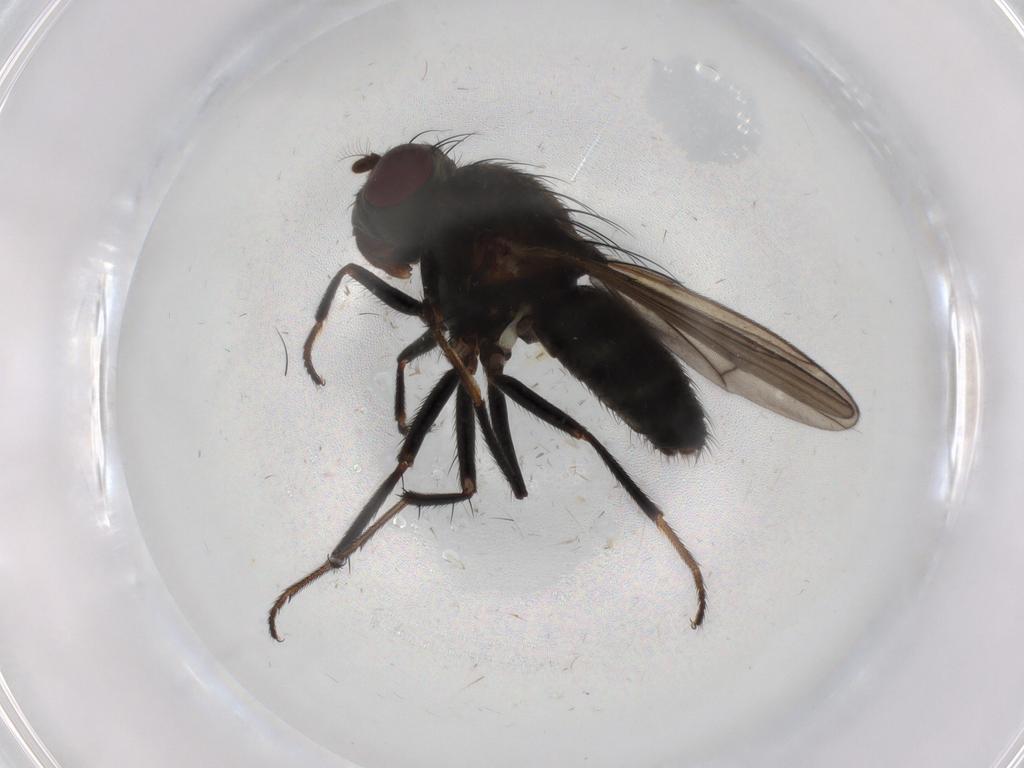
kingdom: Animalia
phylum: Arthropoda
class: Insecta
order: Diptera
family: Ephydridae
